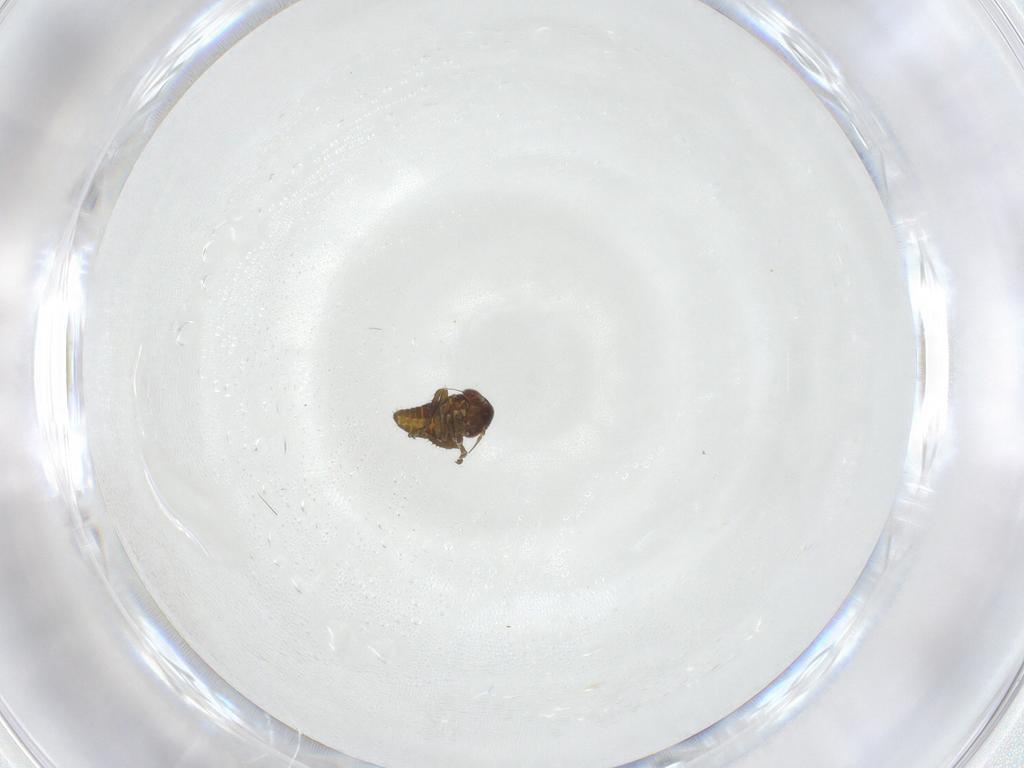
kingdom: Animalia
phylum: Arthropoda
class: Insecta
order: Hemiptera
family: Cicadellidae
